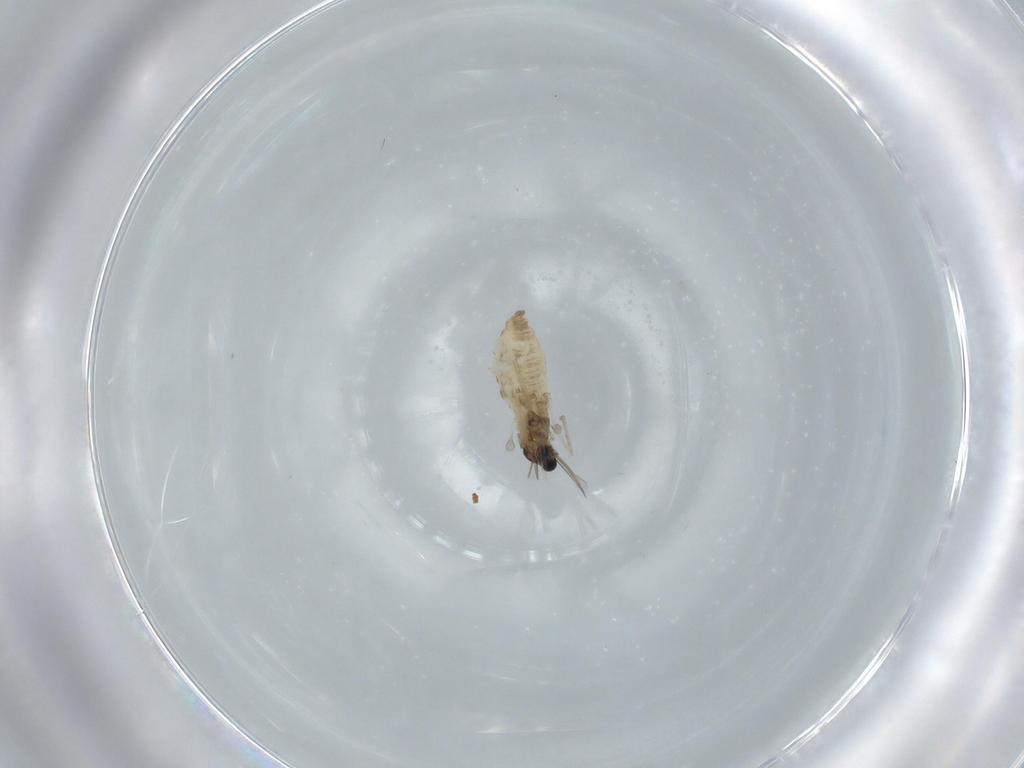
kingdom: Animalia
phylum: Arthropoda
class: Insecta
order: Diptera
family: Cecidomyiidae
